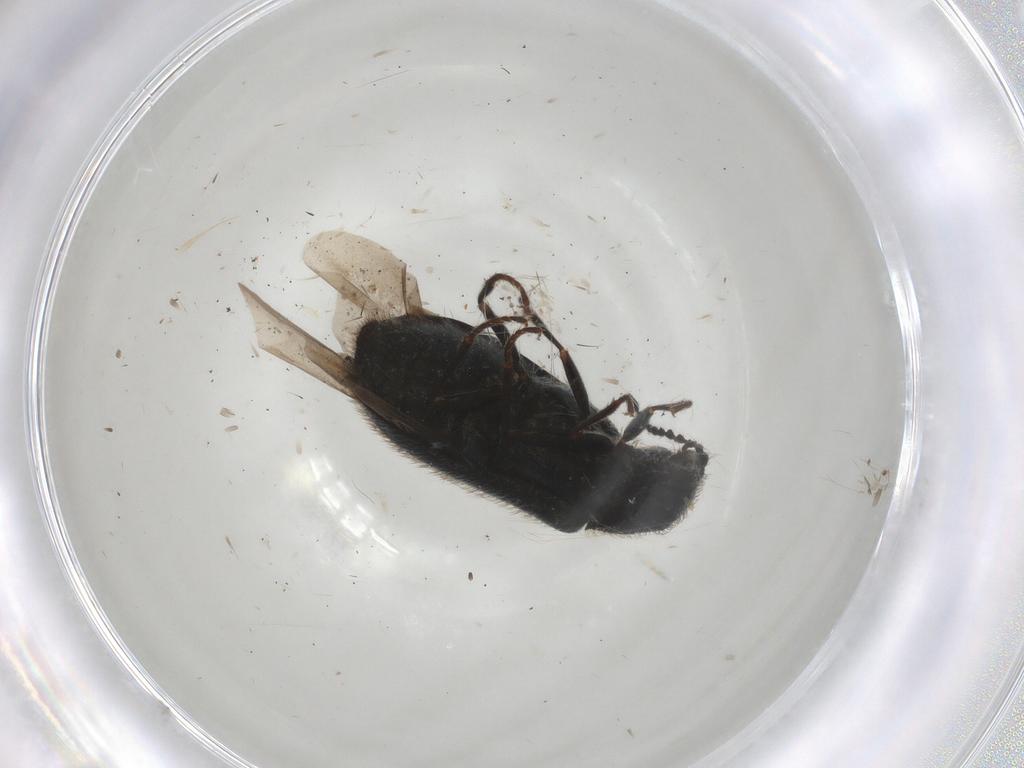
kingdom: Animalia
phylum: Arthropoda
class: Insecta
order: Coleoptera
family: Melyridae
